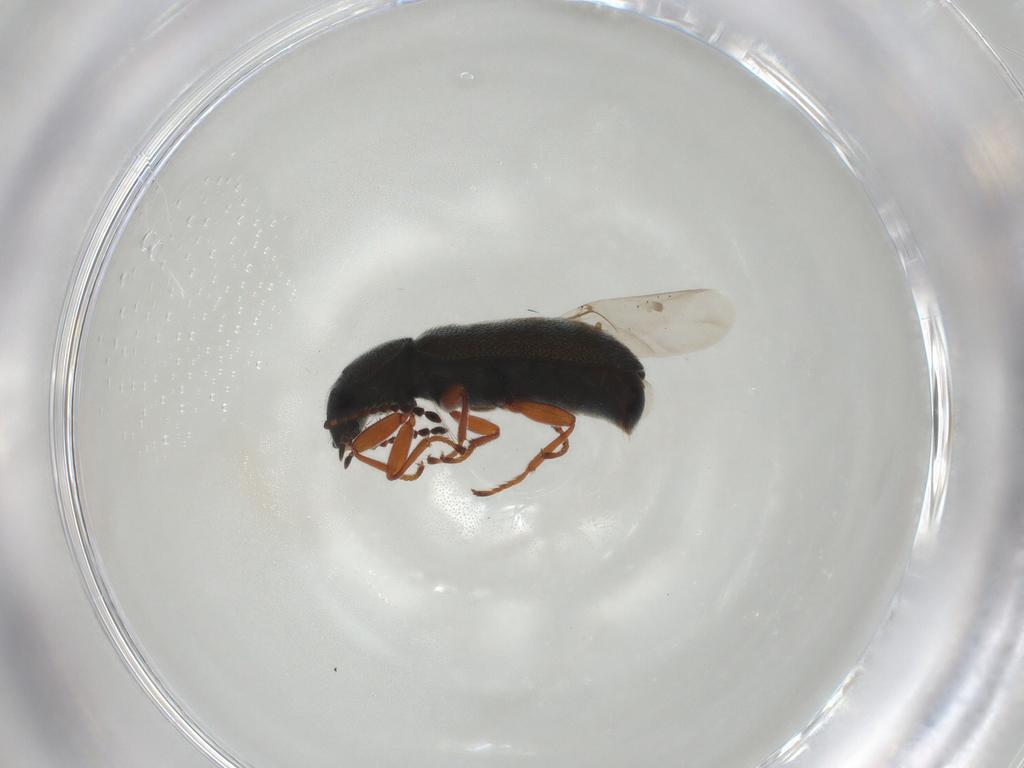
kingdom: Animalia
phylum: Arthropoda
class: Insecta
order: Coleoptera
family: Melyridae
